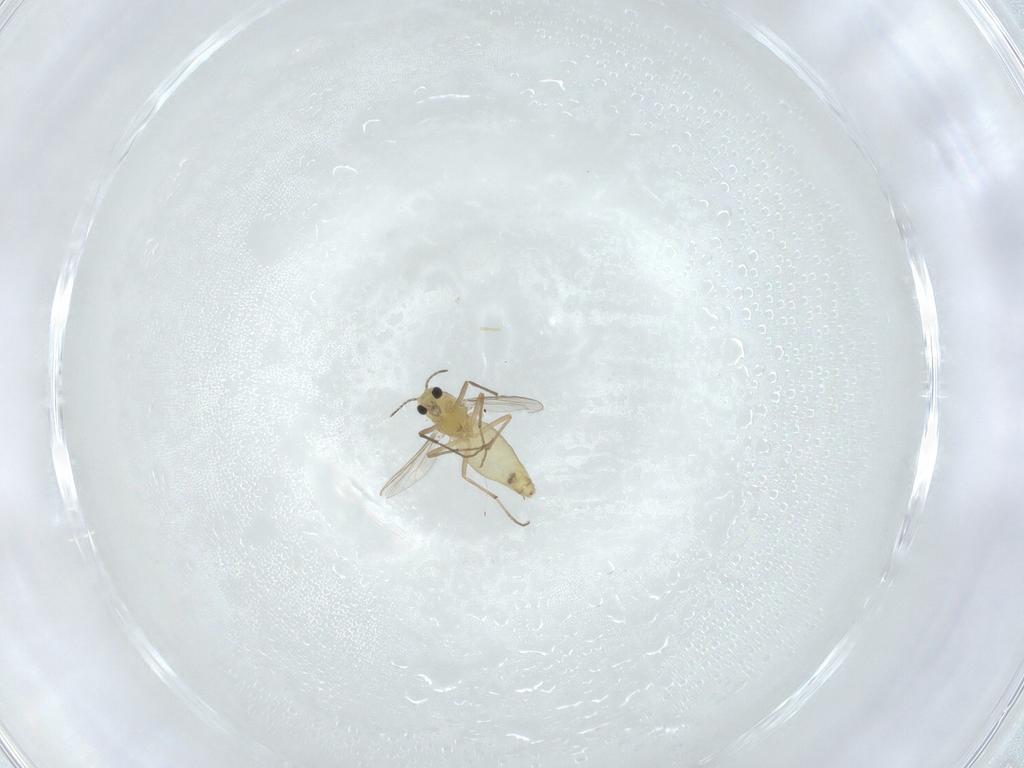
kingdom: Animalia
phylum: Arthropoda
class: Insecta
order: Diptera
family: Chironomidae
